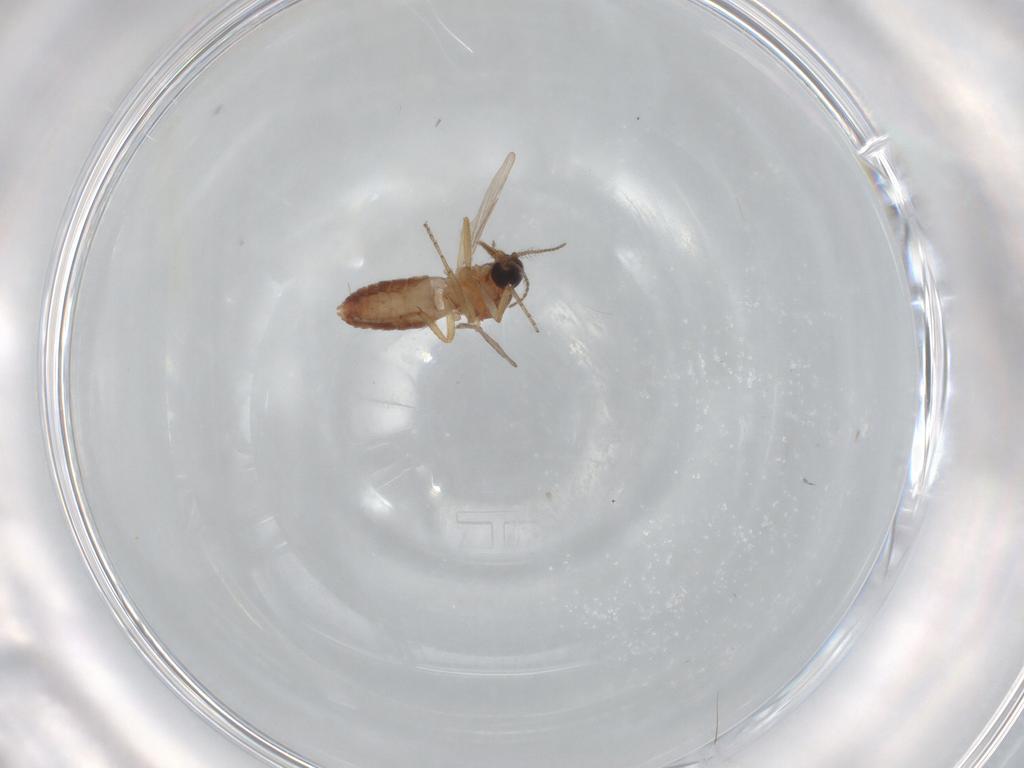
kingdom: Animalia
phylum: Arthropoda
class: Insecta
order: Diptera
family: Ceratopogonidae
